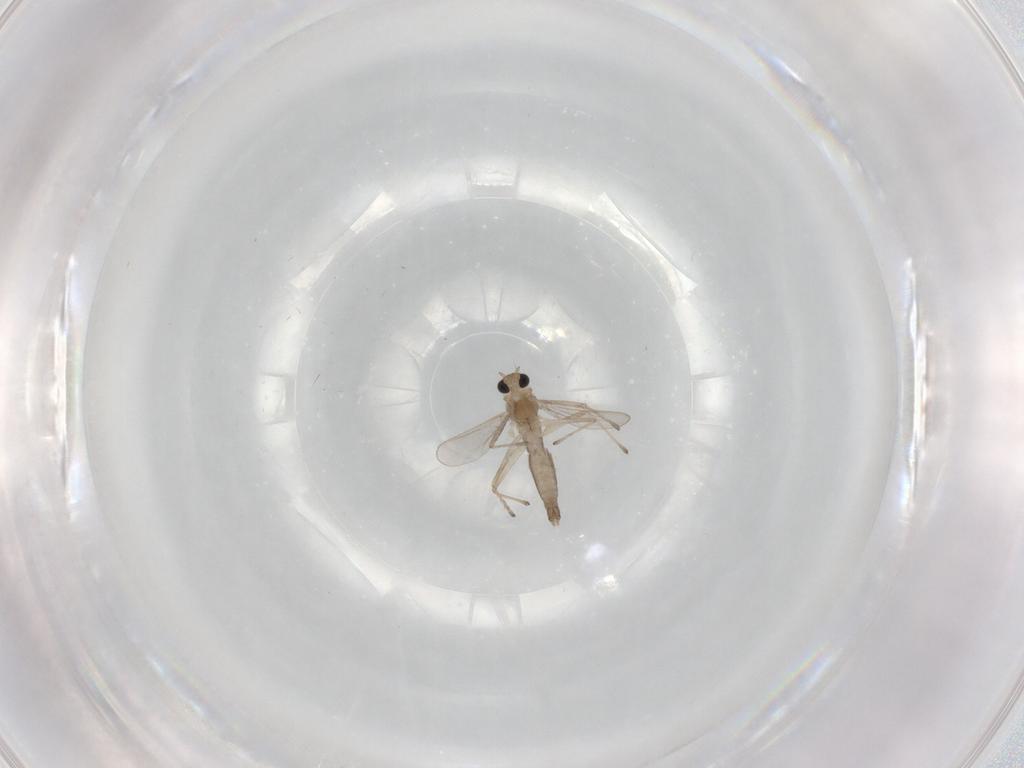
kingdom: Animalia
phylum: Arthropoda
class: Insecta
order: Diptera
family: Chironomidae
